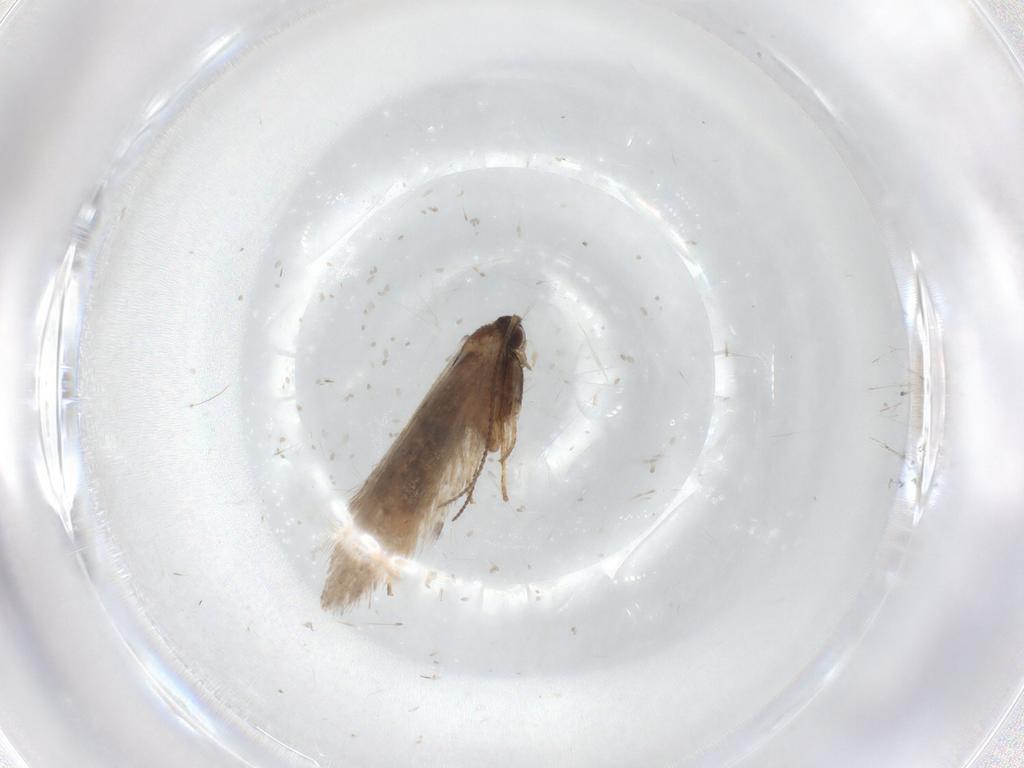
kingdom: Animalia
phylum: Arthropoda
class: Insecta
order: Lepidoptera
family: Nepticulidae
